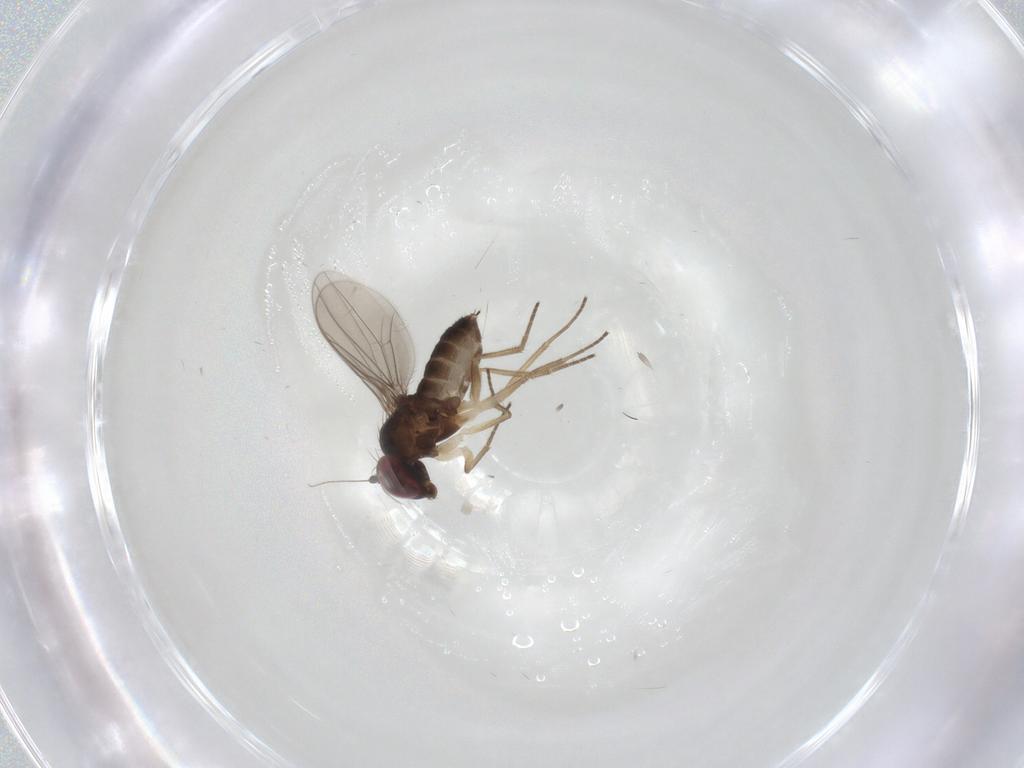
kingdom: Animalia
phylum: Arthropoda
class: Insecta
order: Diptera
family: Phoridae
